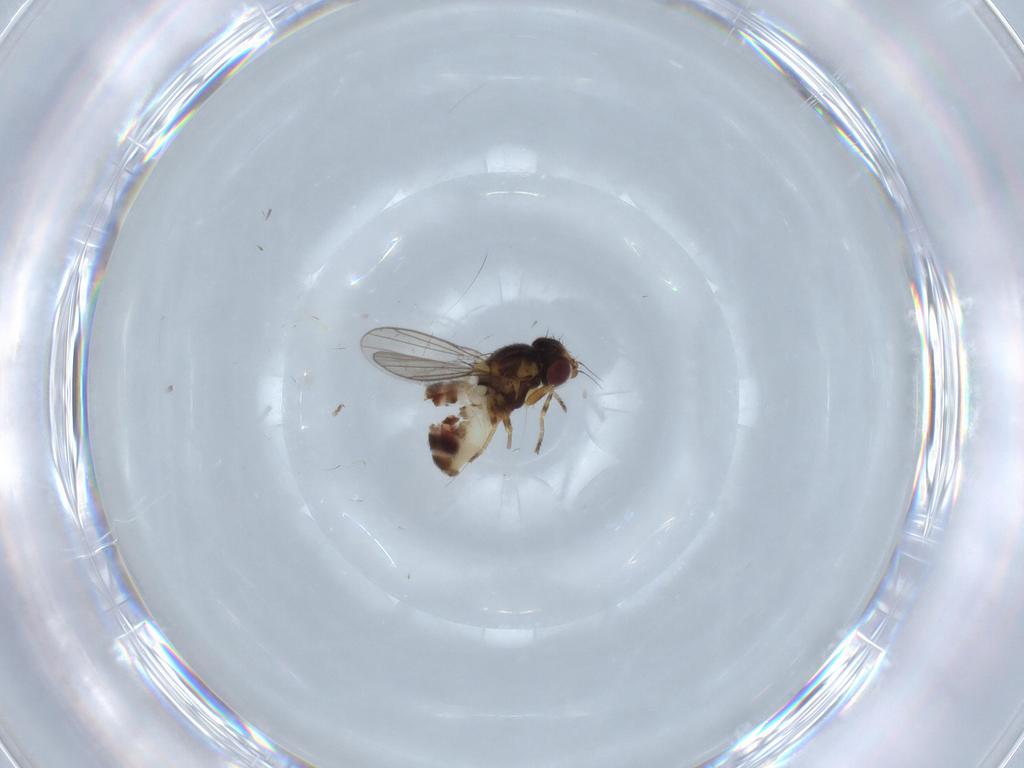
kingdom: Animalia
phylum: Arthropoda
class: Insecta
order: Diptera
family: Chloropidae
